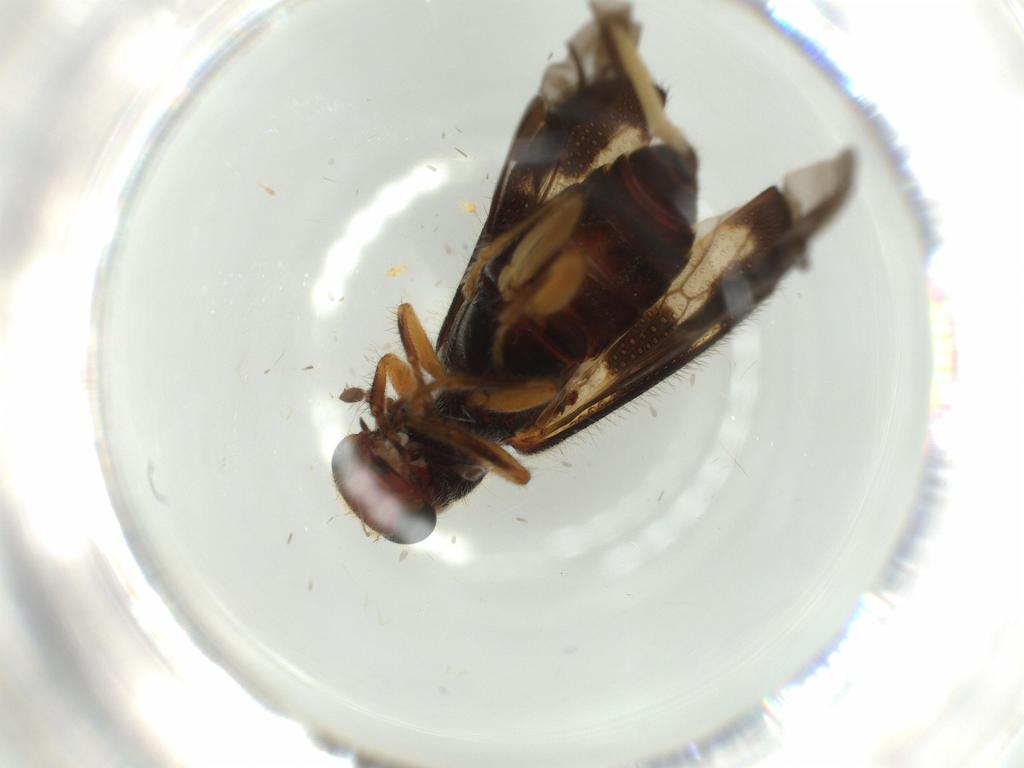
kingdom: Animalia
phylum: Arthropoda
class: Insecta
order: Coleoptera
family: Cleridae
